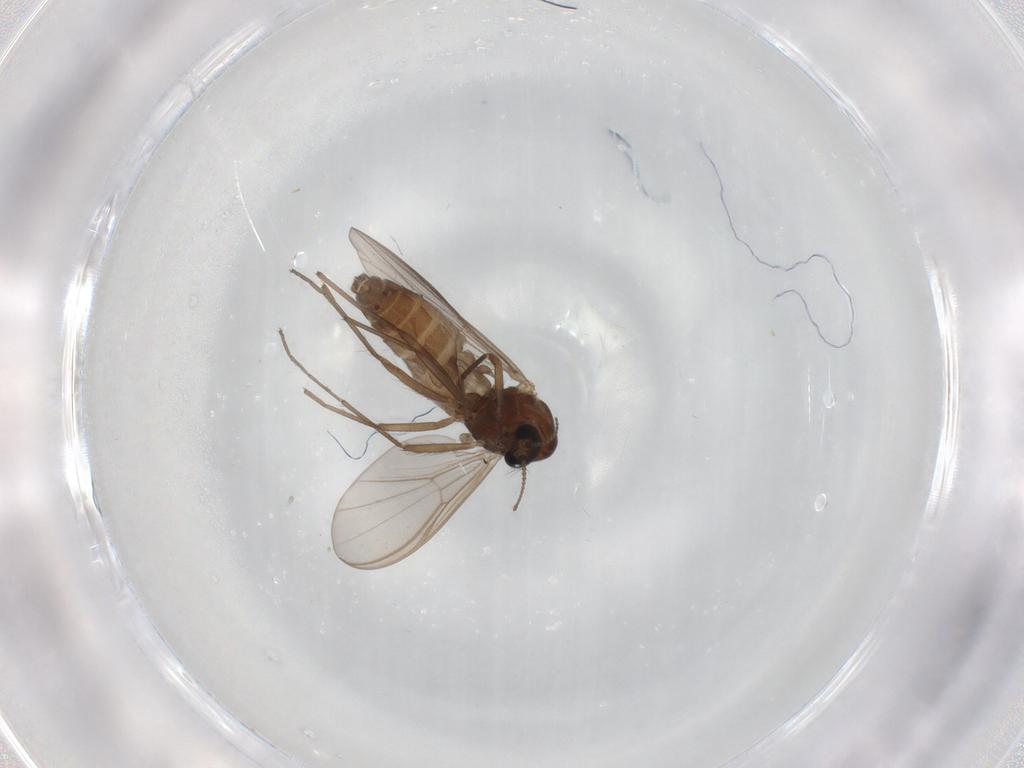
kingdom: Animalia
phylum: Arthropoda
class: Insecta
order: Diptera
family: Chironomidae
